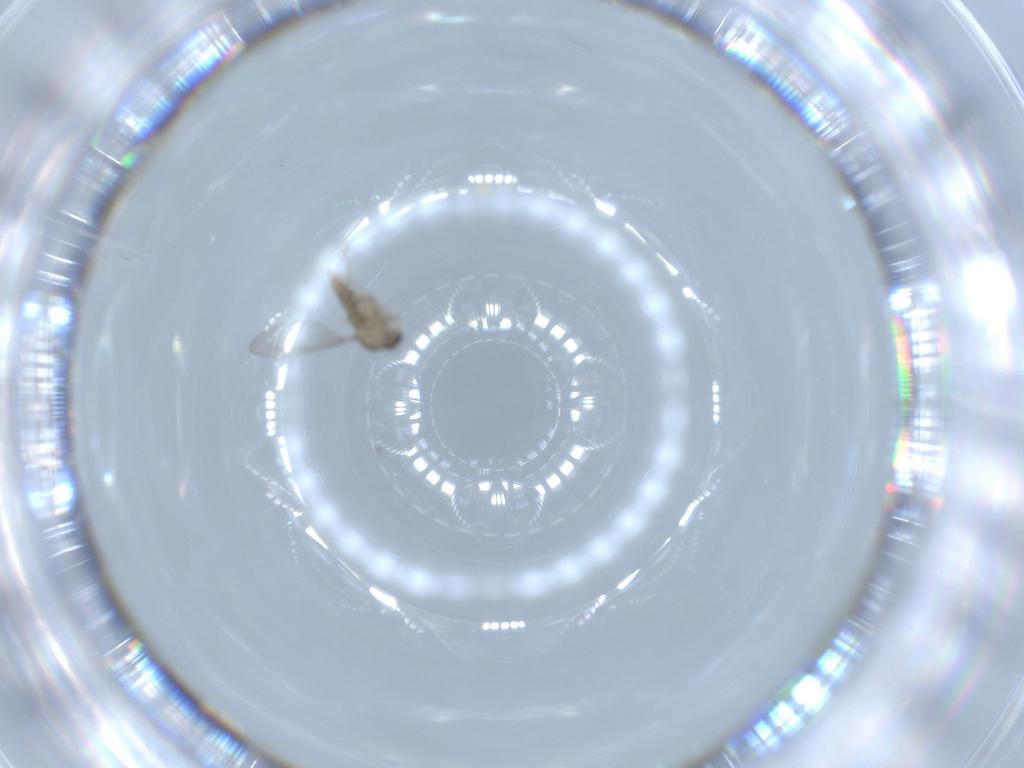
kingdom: Animalia
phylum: Arthropoda
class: Insecta
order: Diptera
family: Cecidomyiidae
